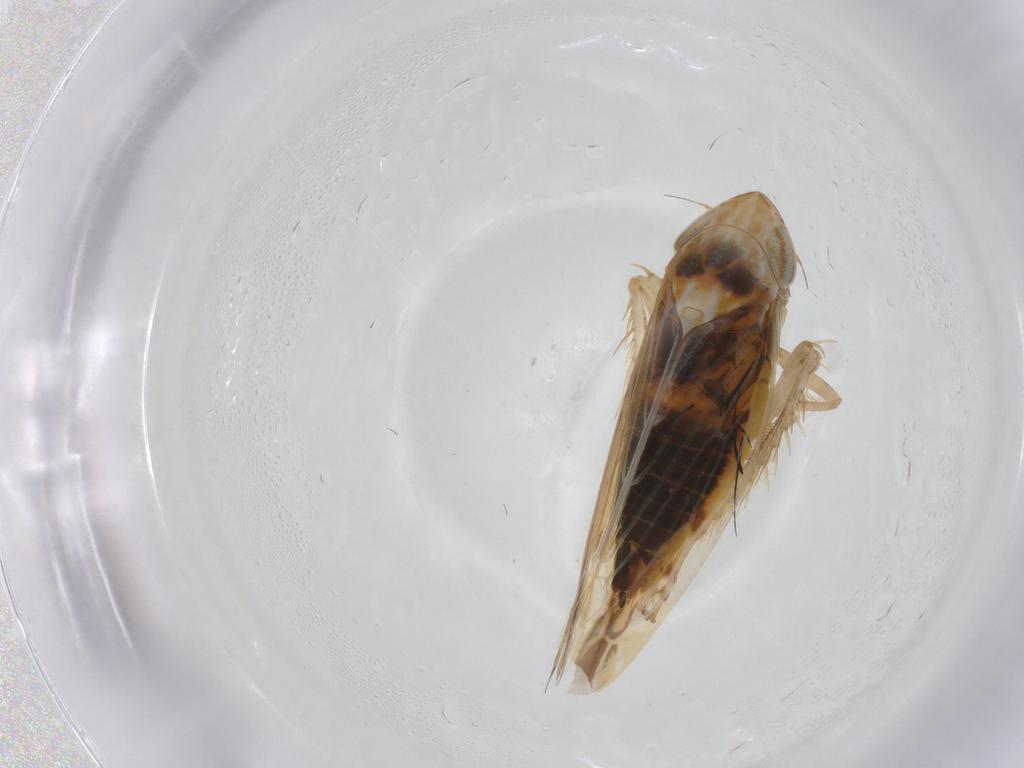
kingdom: Animalia
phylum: Arthropoda
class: Insecta
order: Hemiptera
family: Cicadellidae
